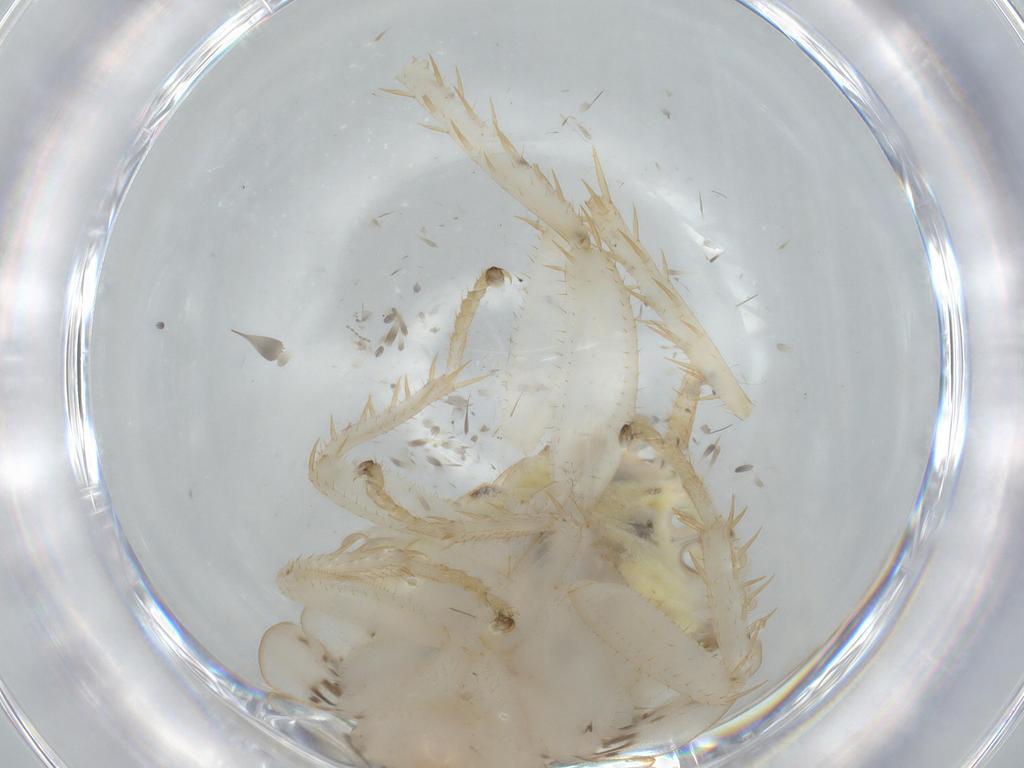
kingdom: Animalia
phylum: Arthropoda
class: Insecta
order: Blattodea
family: Ectobiidae
